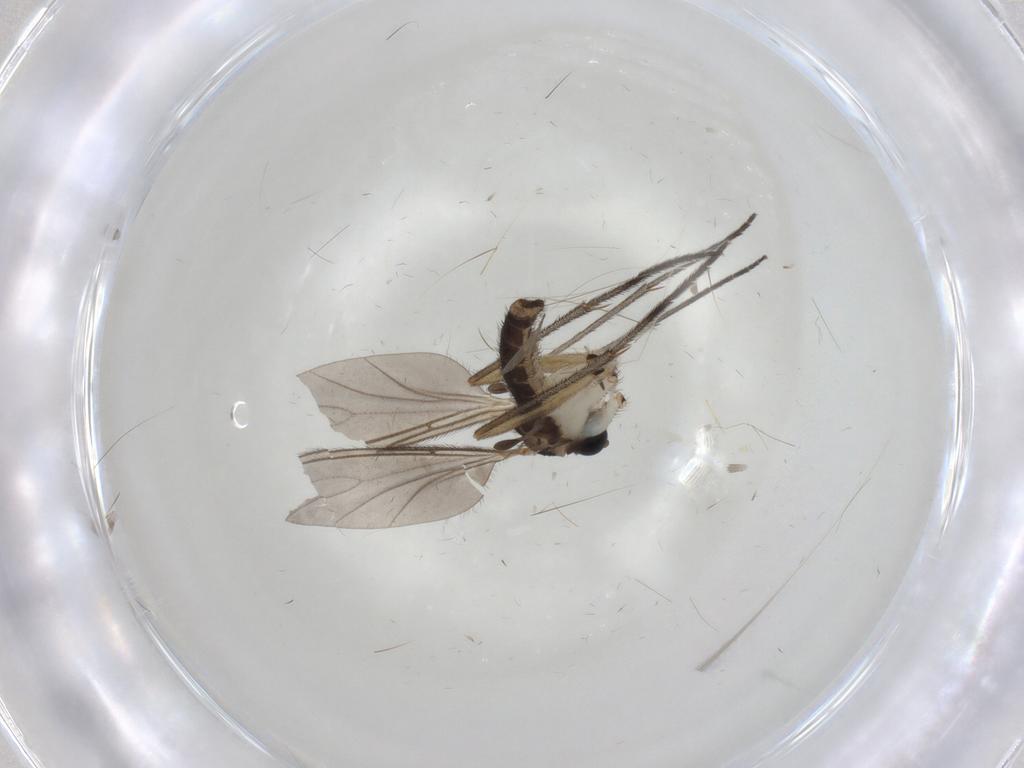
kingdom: Animalia
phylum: Arthropoda
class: Insecta
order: Diptera
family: Sciaridae
